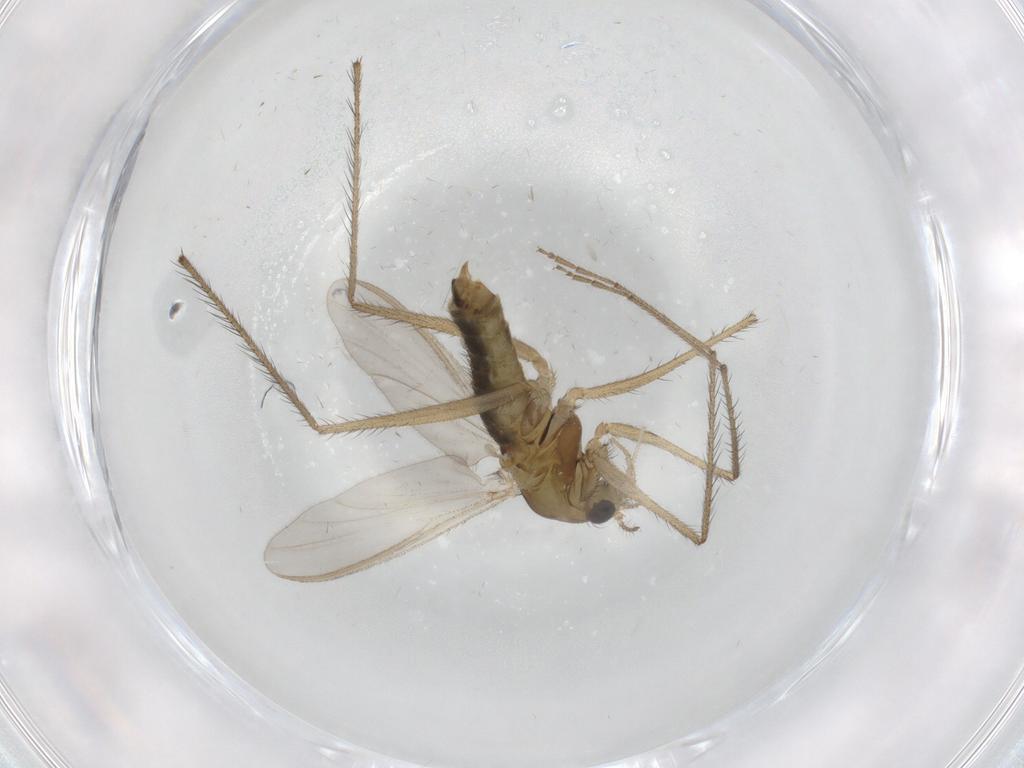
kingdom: Animalia
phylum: Arthropoda
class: Insecta
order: Diptera
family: Chironomidae
